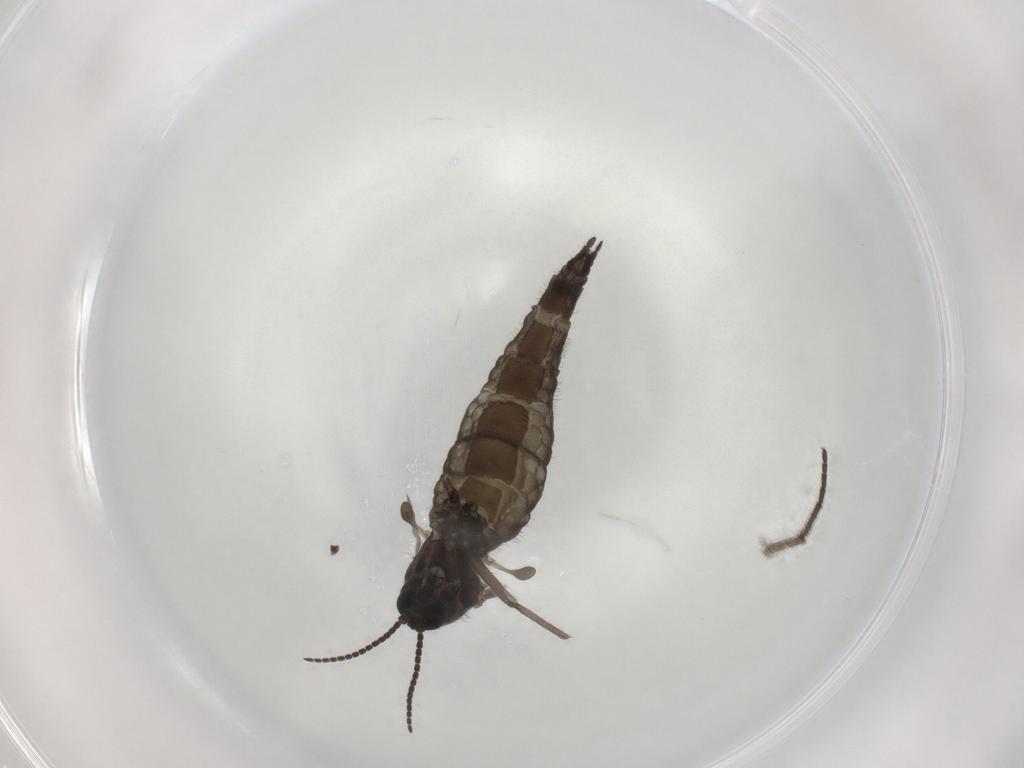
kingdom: Animalia
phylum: Arthropoda
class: Insecta
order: Diptera
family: Sciaridae
